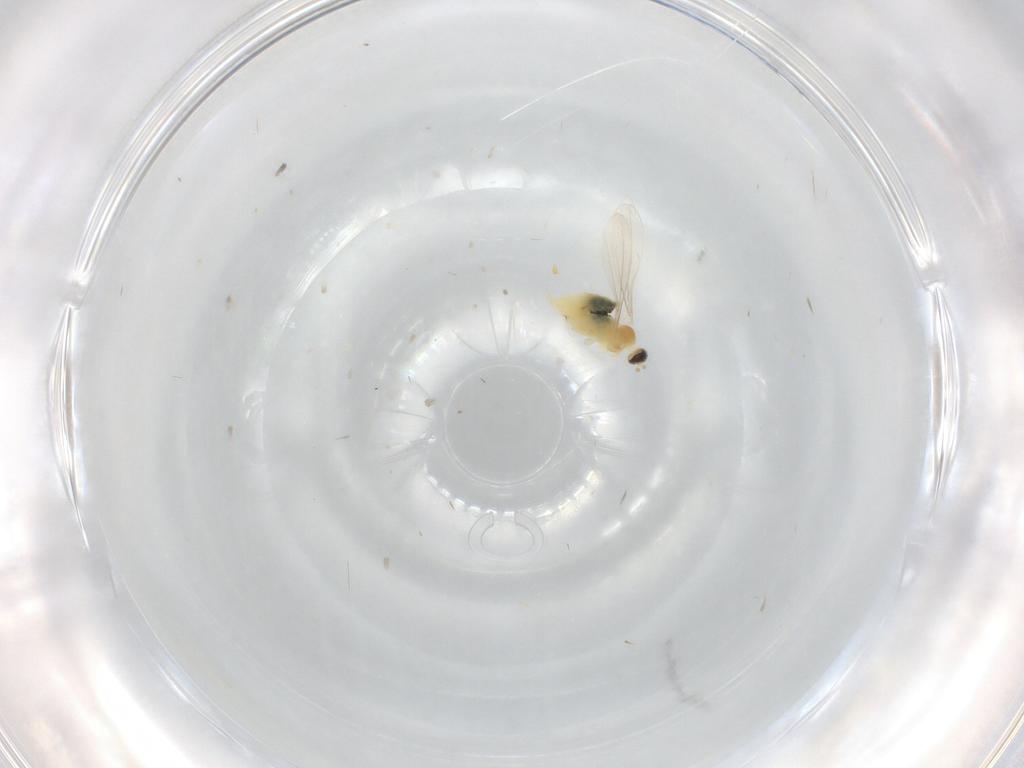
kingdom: Animalia
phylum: Arthropoda
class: Insecta
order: Diptera
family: Cecidomyiidae
